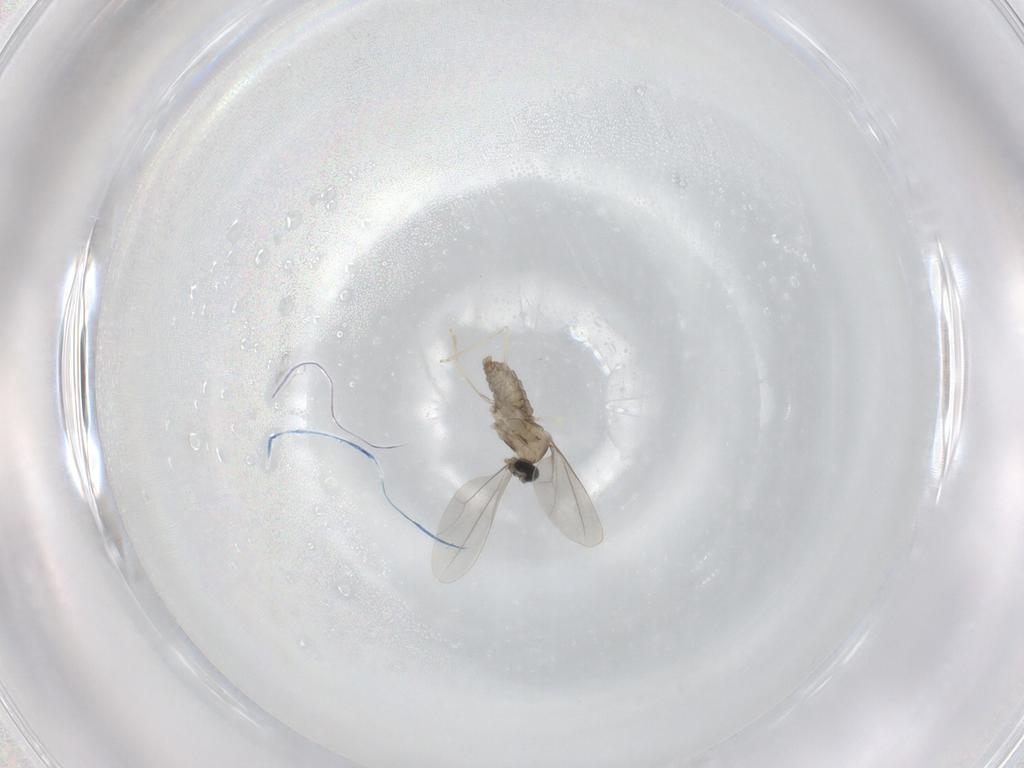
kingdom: Animalia
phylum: Arthropoda
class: Insecta
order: Diptera
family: Cecidomyiidae
